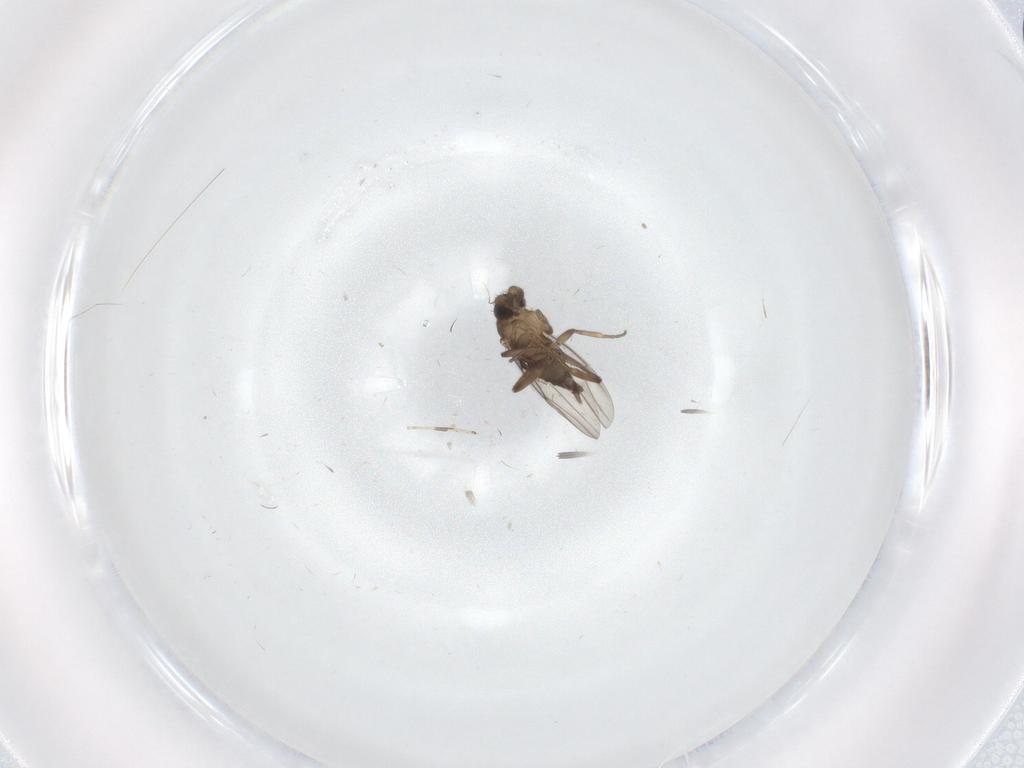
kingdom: Animalia
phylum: Arthropoda
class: Insecta
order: Diptera
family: Phoridae
